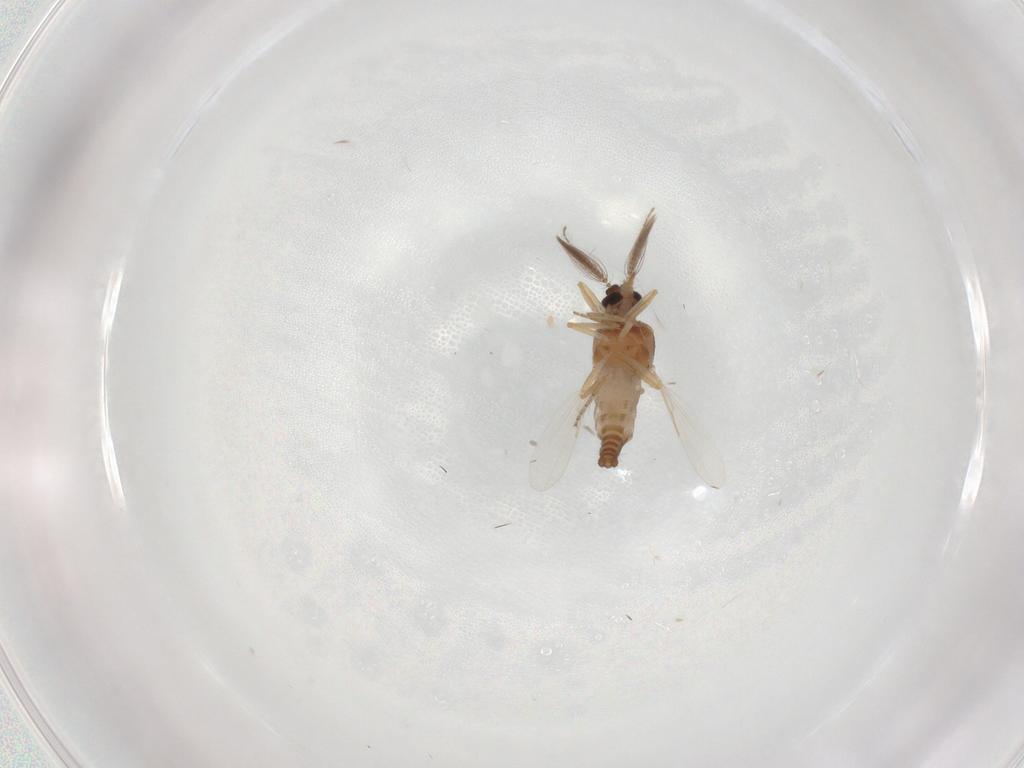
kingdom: Animalia
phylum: Arthropoda
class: Insecta
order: Diptera
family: Ceratopogonidae
